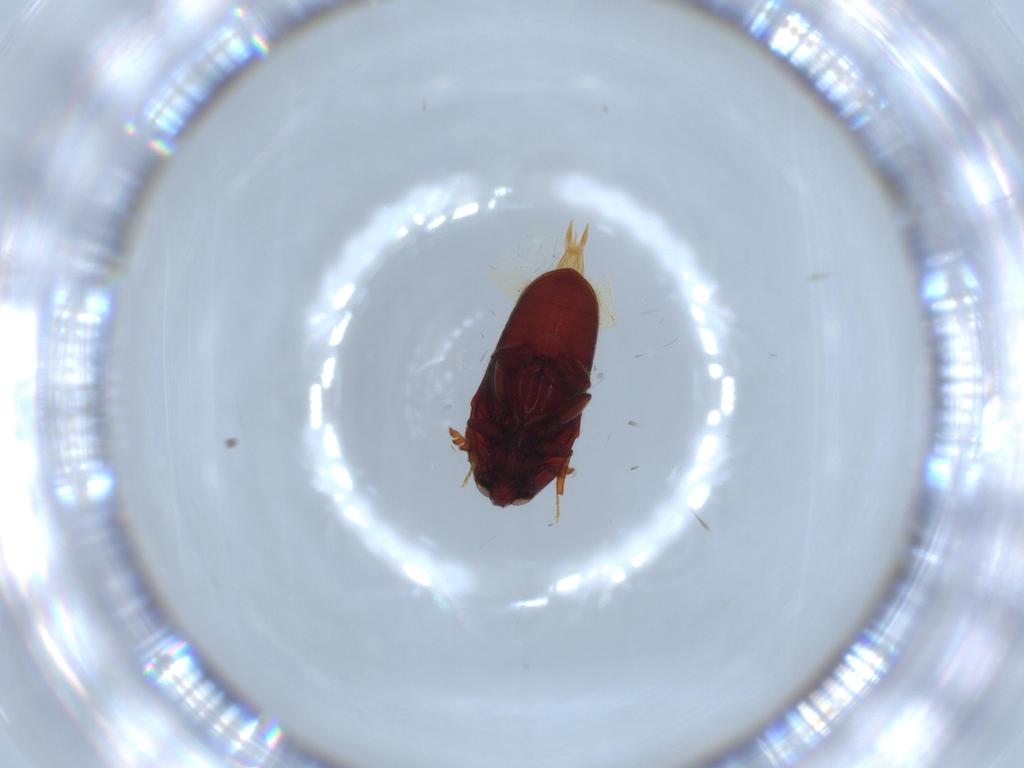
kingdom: Animalia
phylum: Arthropoda
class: Insecta
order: Coleoptera
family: Throscidae
